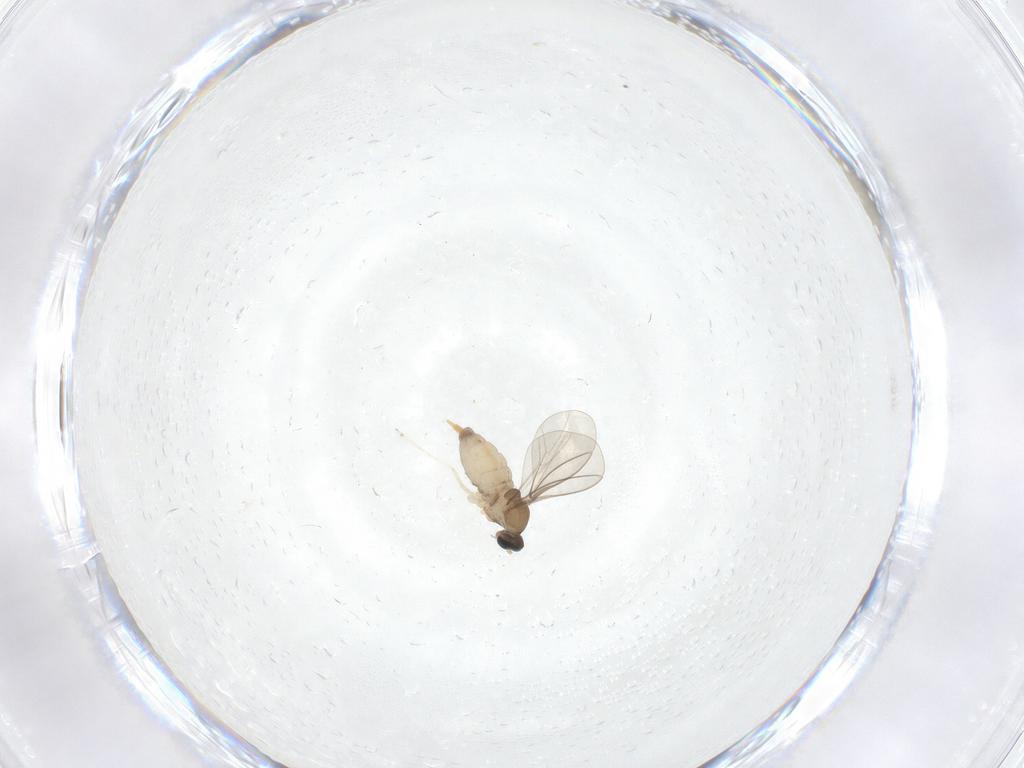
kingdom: Animalia
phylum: Arthropoda
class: Insecta
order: Diptera
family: Cecidomyiidae
